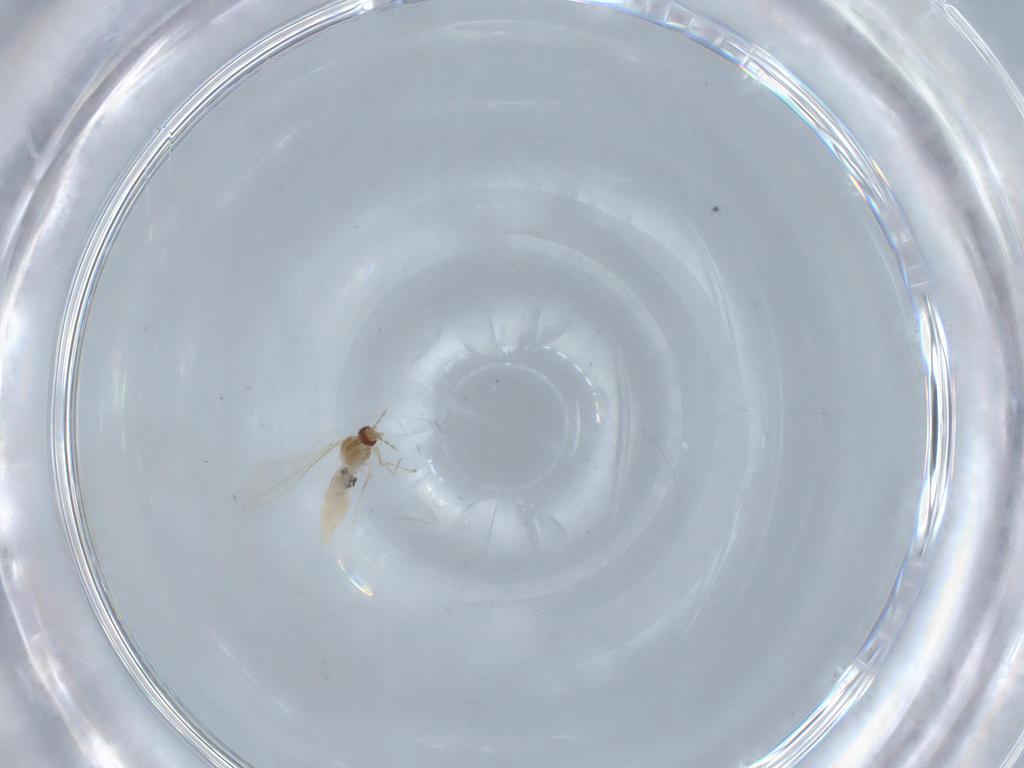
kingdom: Animalia
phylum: Arthropoda
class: Insecta
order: Diptera
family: Cecidomyiidae
